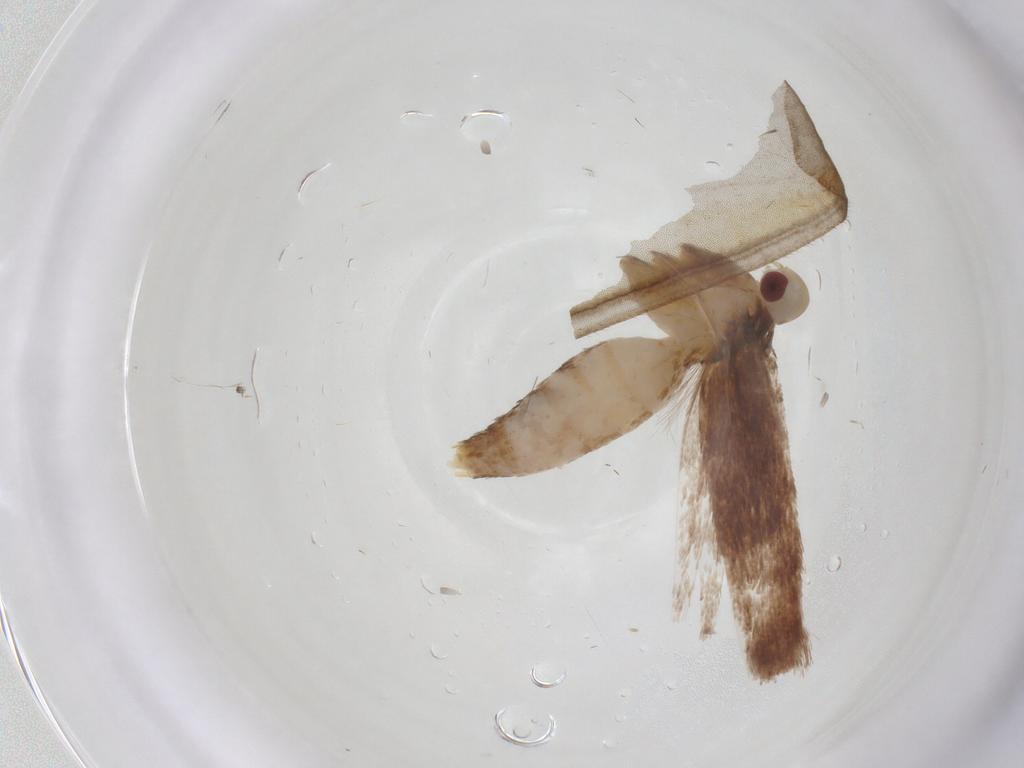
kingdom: Animalia
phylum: Arthropoda
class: Insecta
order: Lepidoptera
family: Cosmopterigidae
